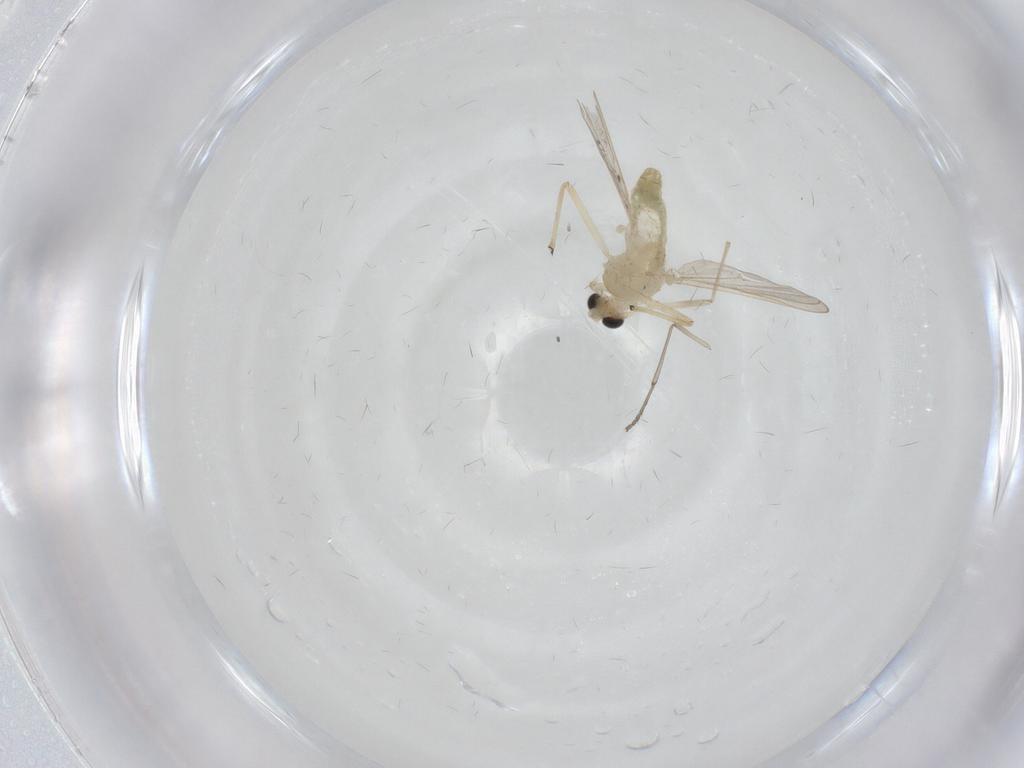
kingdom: Animalia
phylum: Arthropoda
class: Insecta
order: Diptera
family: Chironomidae
